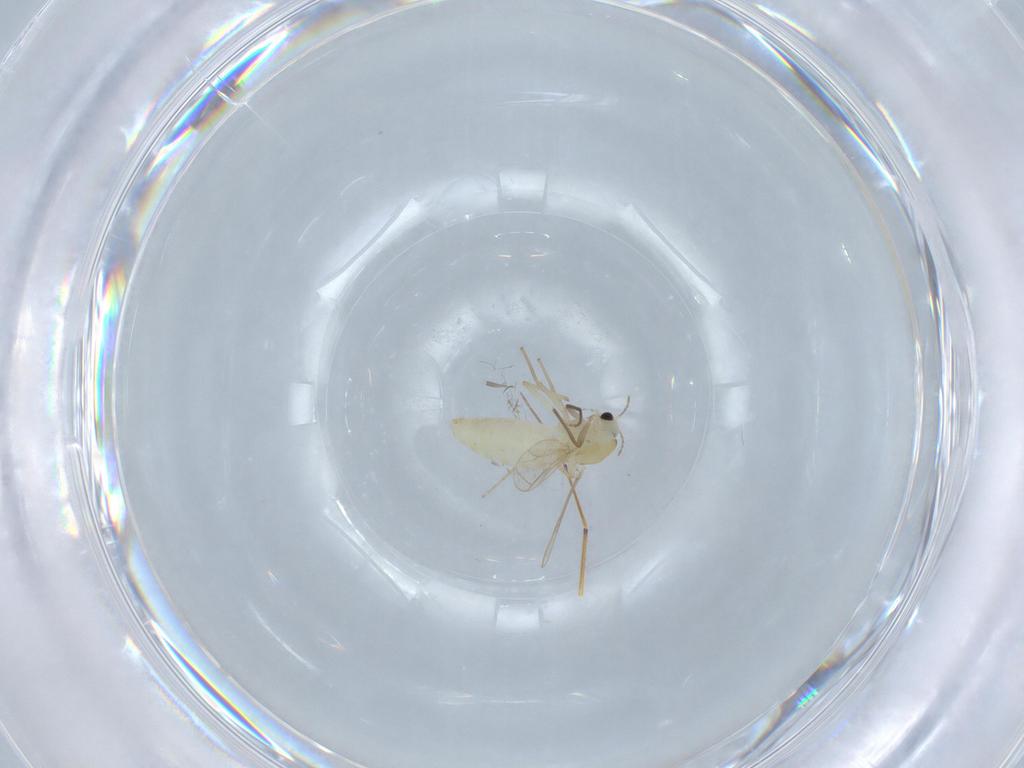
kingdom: Animalia
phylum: Arthropoda
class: Insecta
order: Diptera
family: Chironomidae
